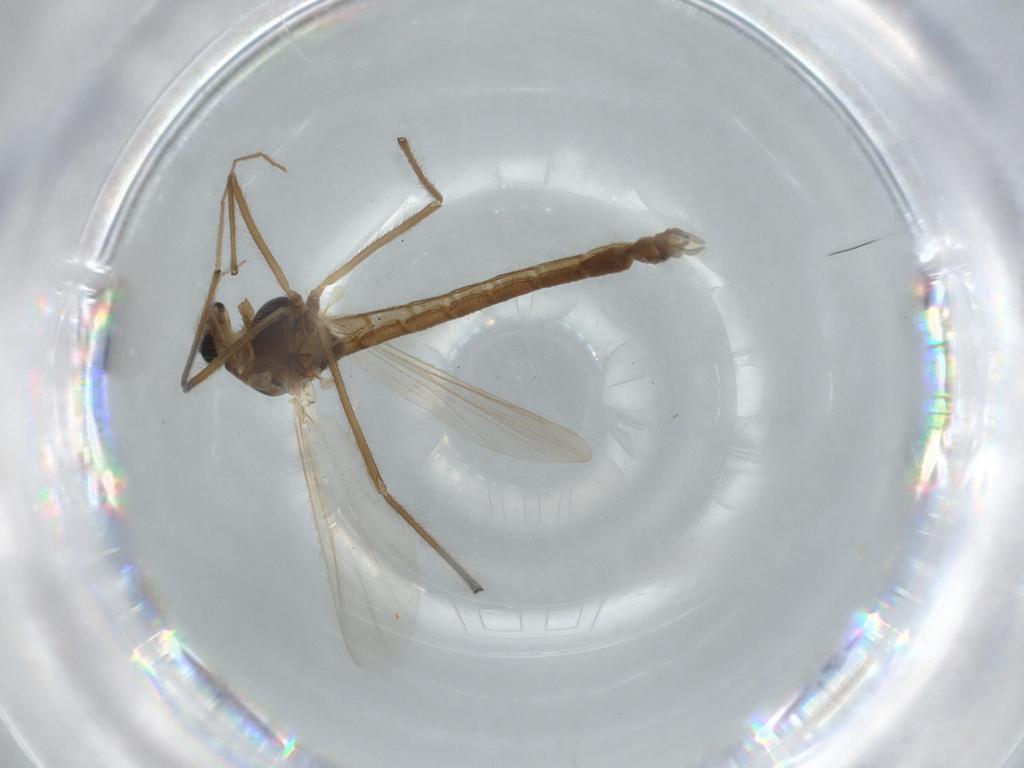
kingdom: Animalia
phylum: Arthropoda
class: Insecta
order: Diptera
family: Chironomidae
